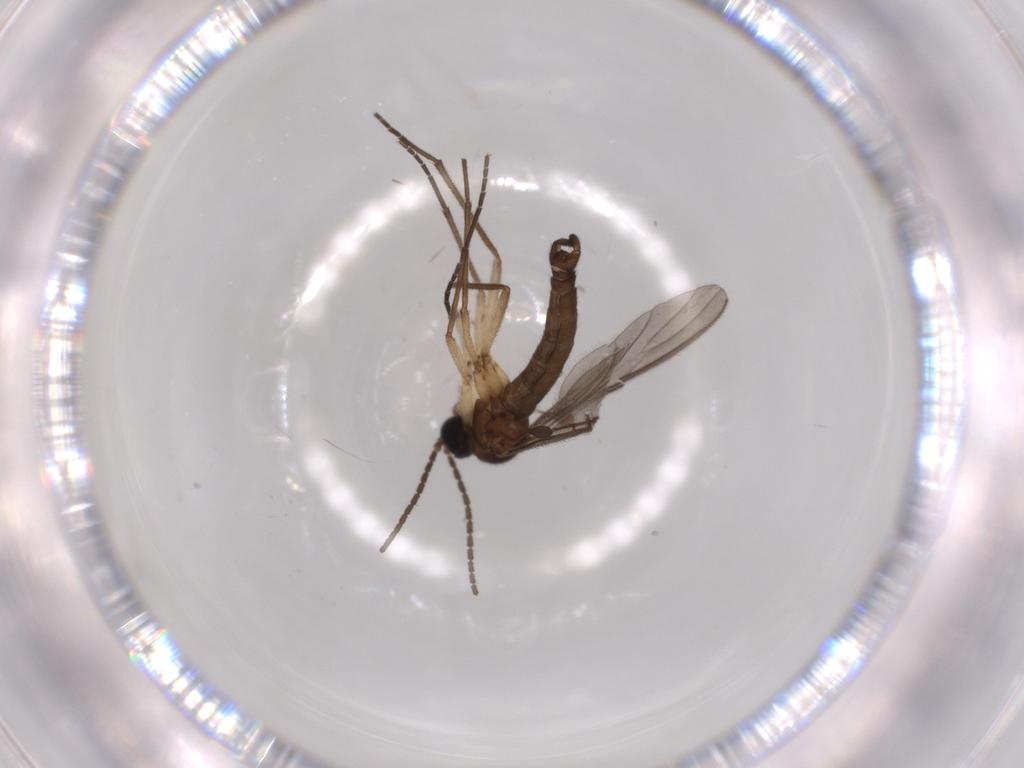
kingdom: Animalia
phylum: Arthropoda
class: Insecta
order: Diptera
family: Sciaridae
